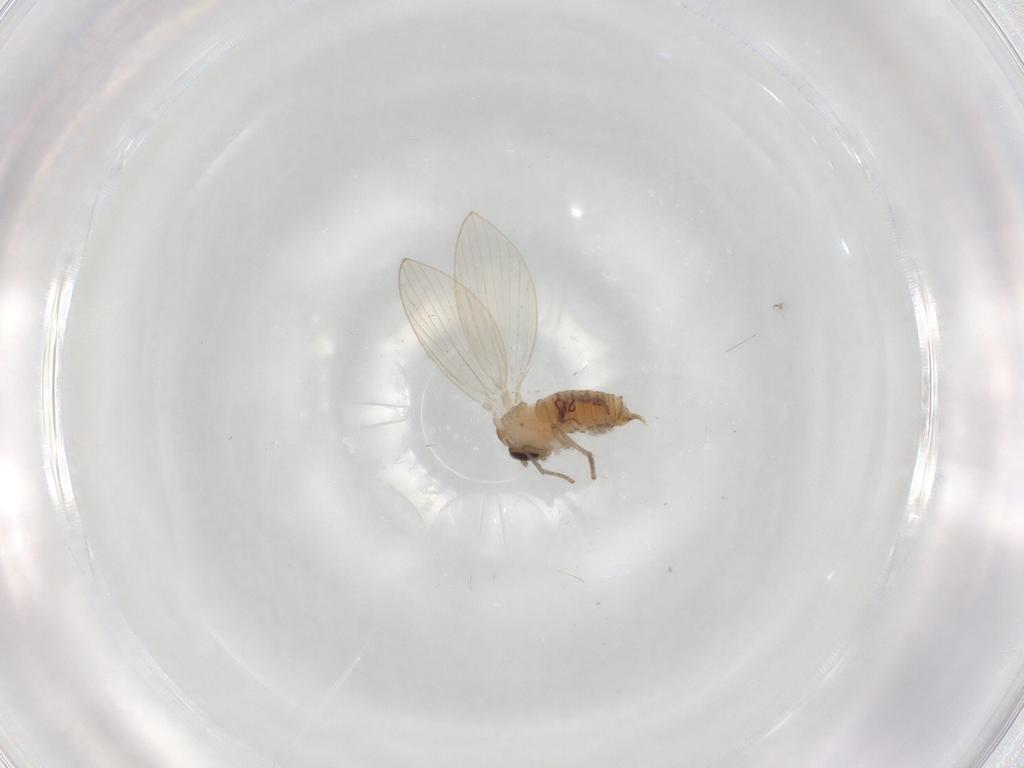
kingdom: Animalia
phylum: Arthropoda
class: Insecta
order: Diptera
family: Psychodidae
